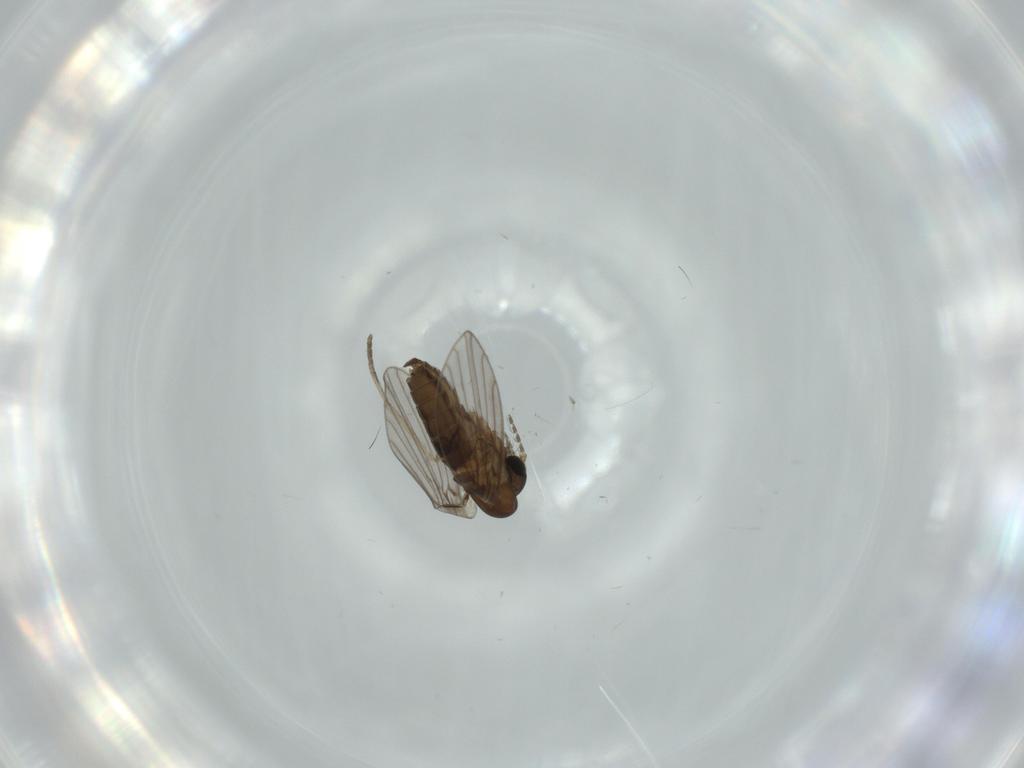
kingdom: Animalia
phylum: Arthropoda
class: Insecta
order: Diptera
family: Psychodidae
